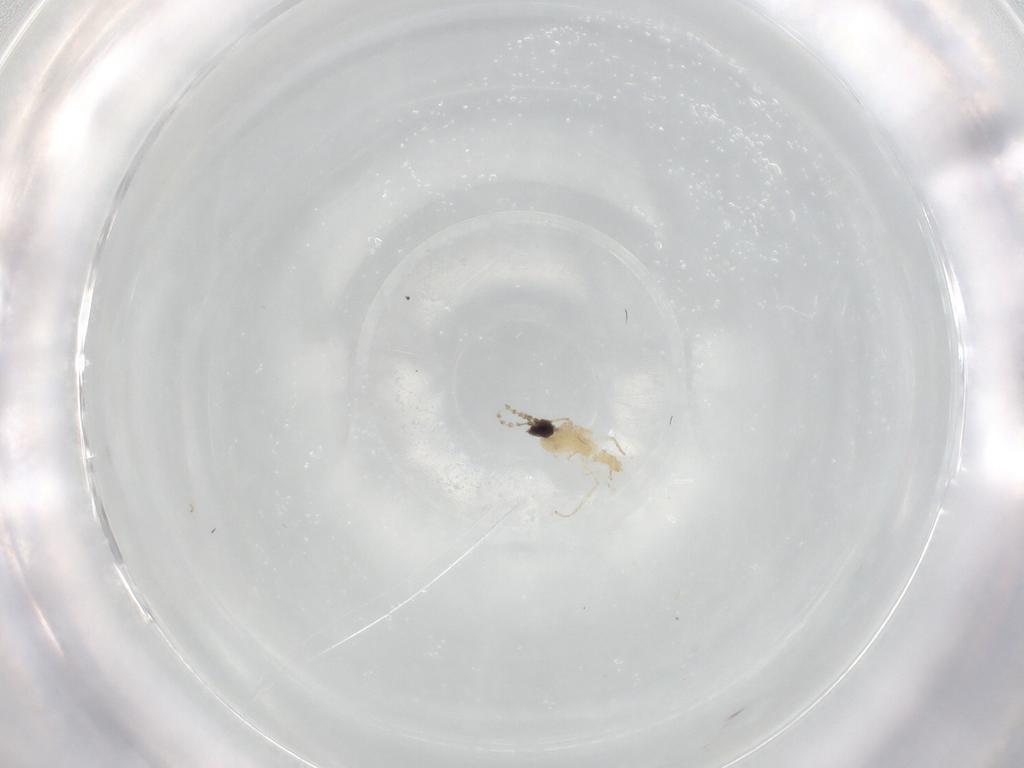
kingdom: Animalia
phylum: Arthropoda
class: Insecta
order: Diptera
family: Cecidomyiidae
